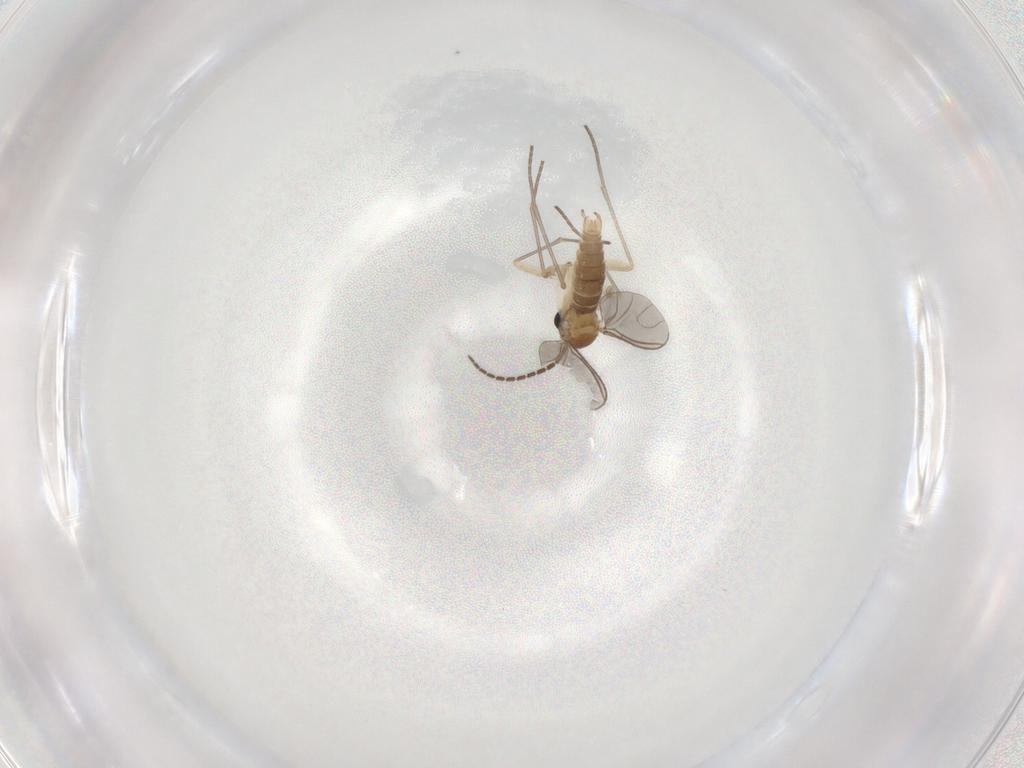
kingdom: Animalia
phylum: Arthropoda
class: Insecta
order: Diptera
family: Sciaridae
